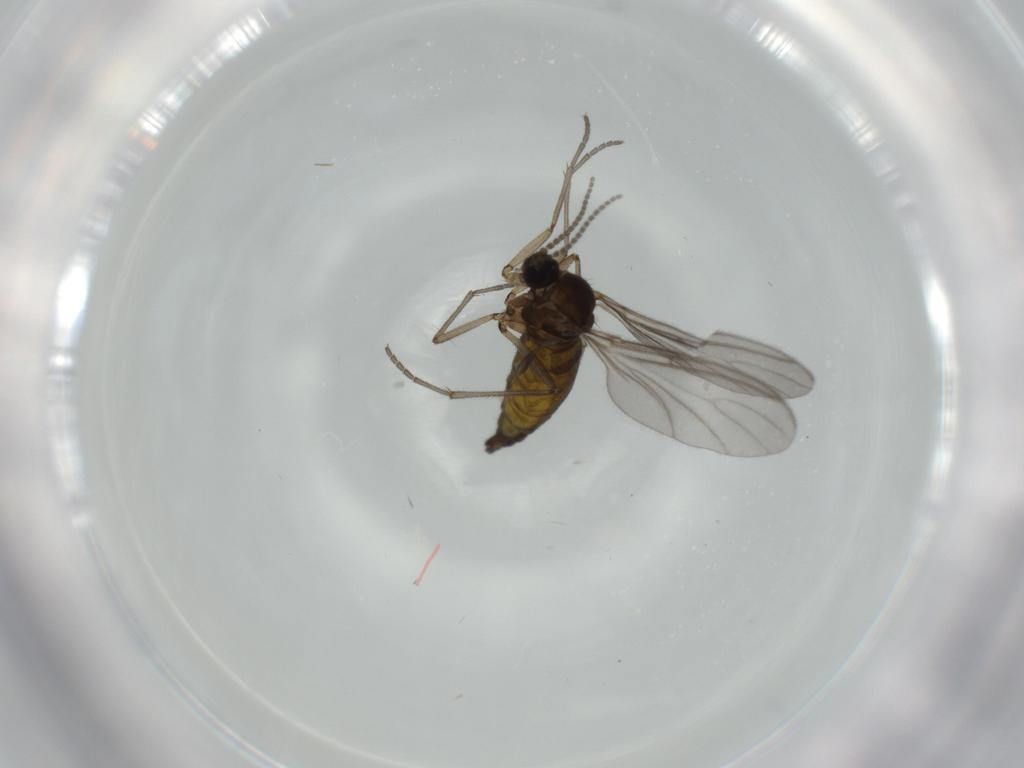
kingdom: Animalia
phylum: Arthropoda
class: Insecta
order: Diptera
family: Sciaridae
